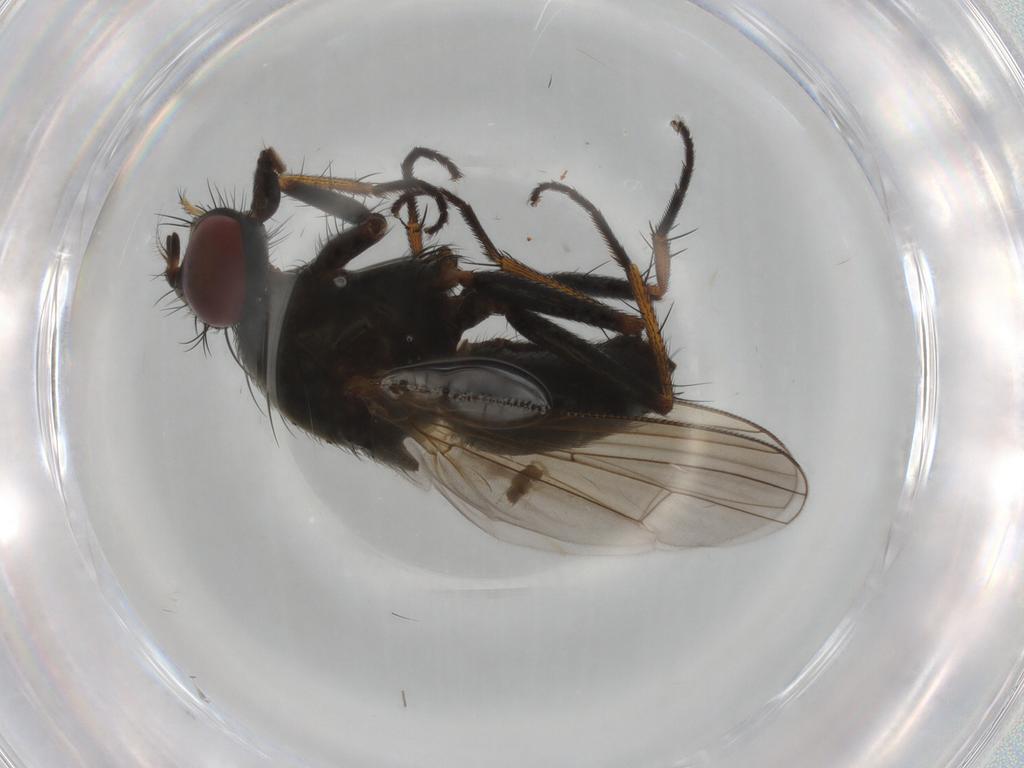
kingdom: Animalia
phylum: Arthropoda
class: Insecta
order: Diptera
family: Muscidae
